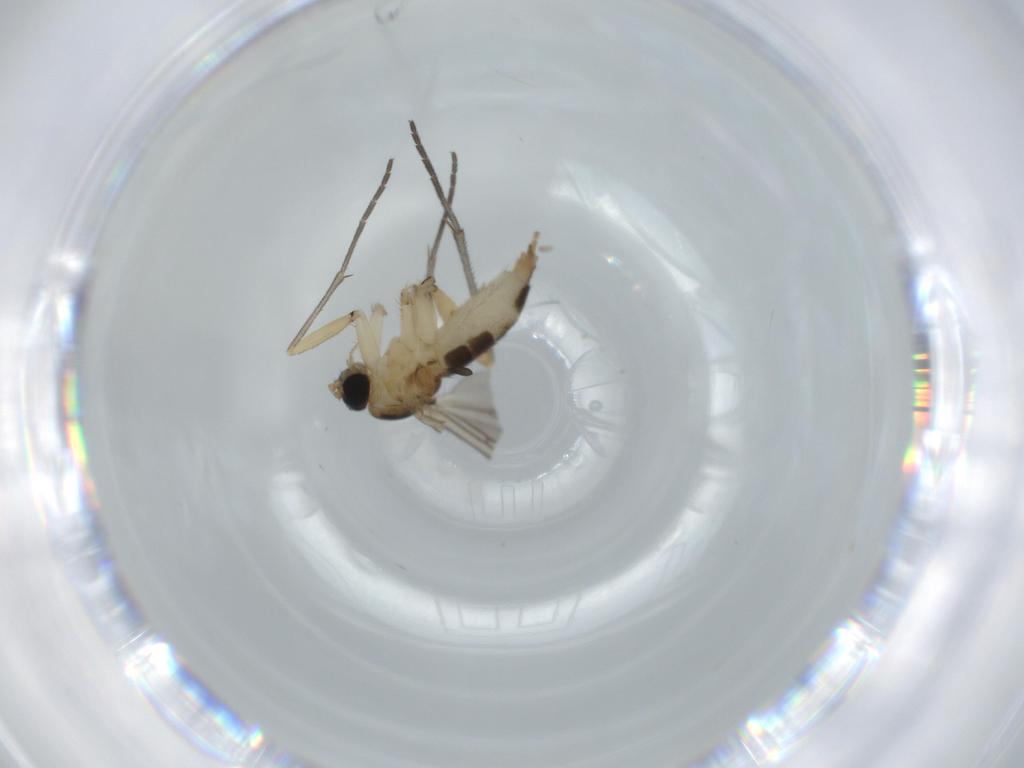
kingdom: Animalia
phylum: Arthropoda
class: Insecta
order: Diptera
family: Sciaridae
